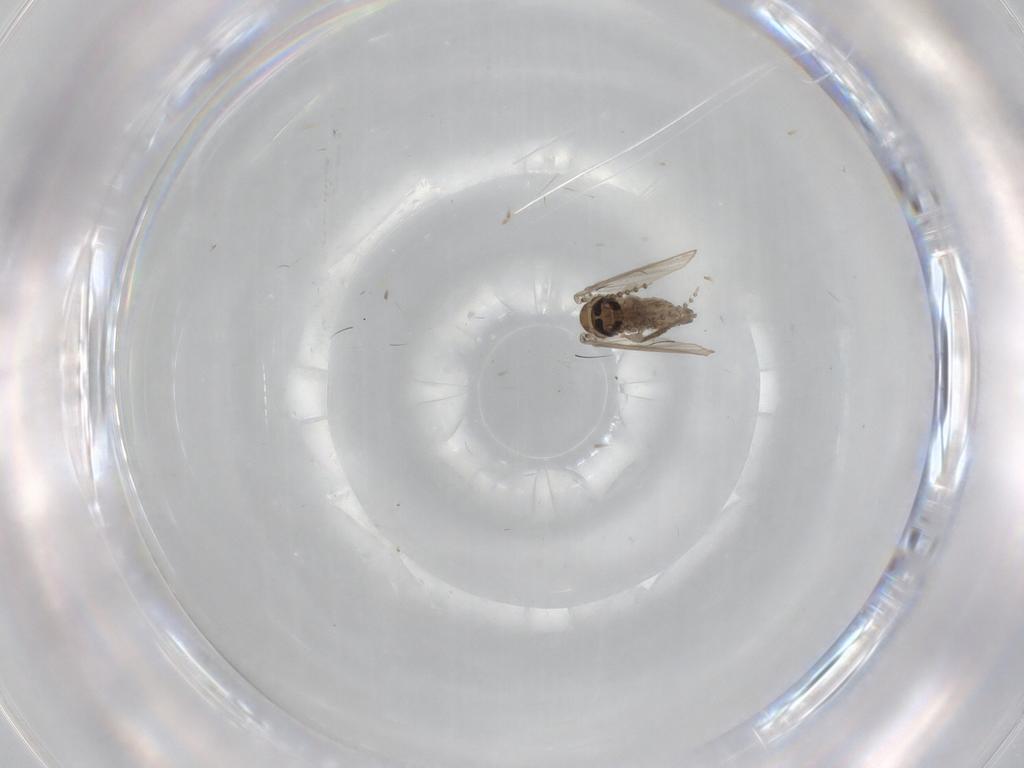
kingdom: Animalia
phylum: Arthropoda
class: Insecta
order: Diptera
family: Psychodidae
